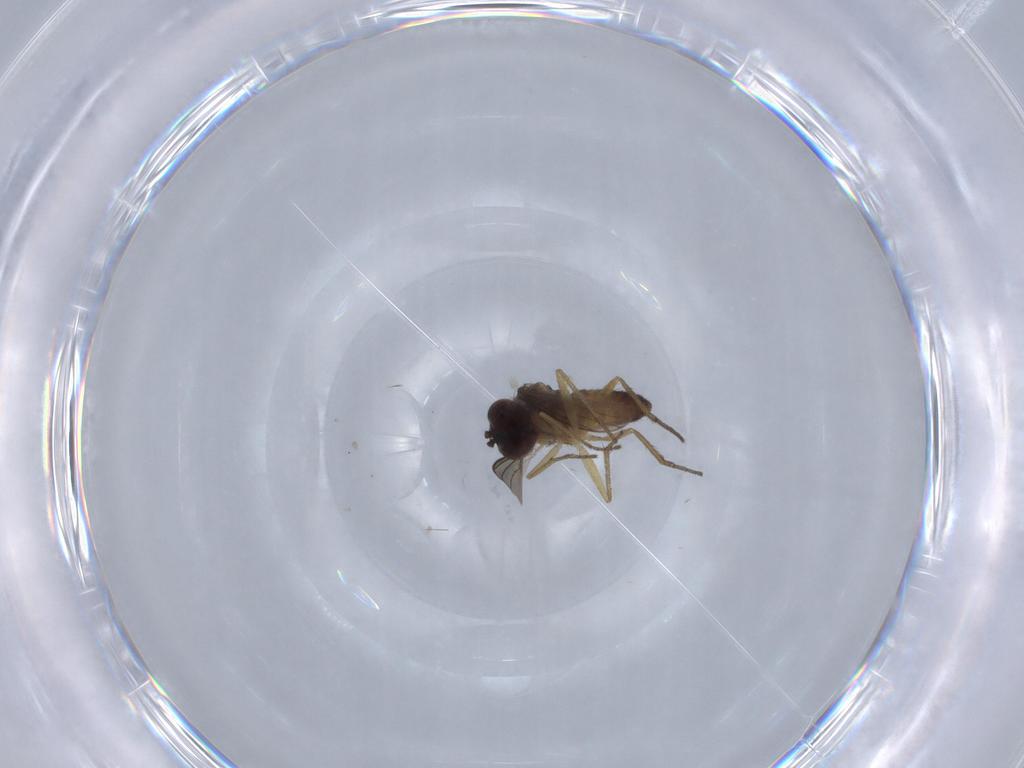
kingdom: Animalia
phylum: Arthropoda
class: Insecta
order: Diptera
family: Dolichopodidae
